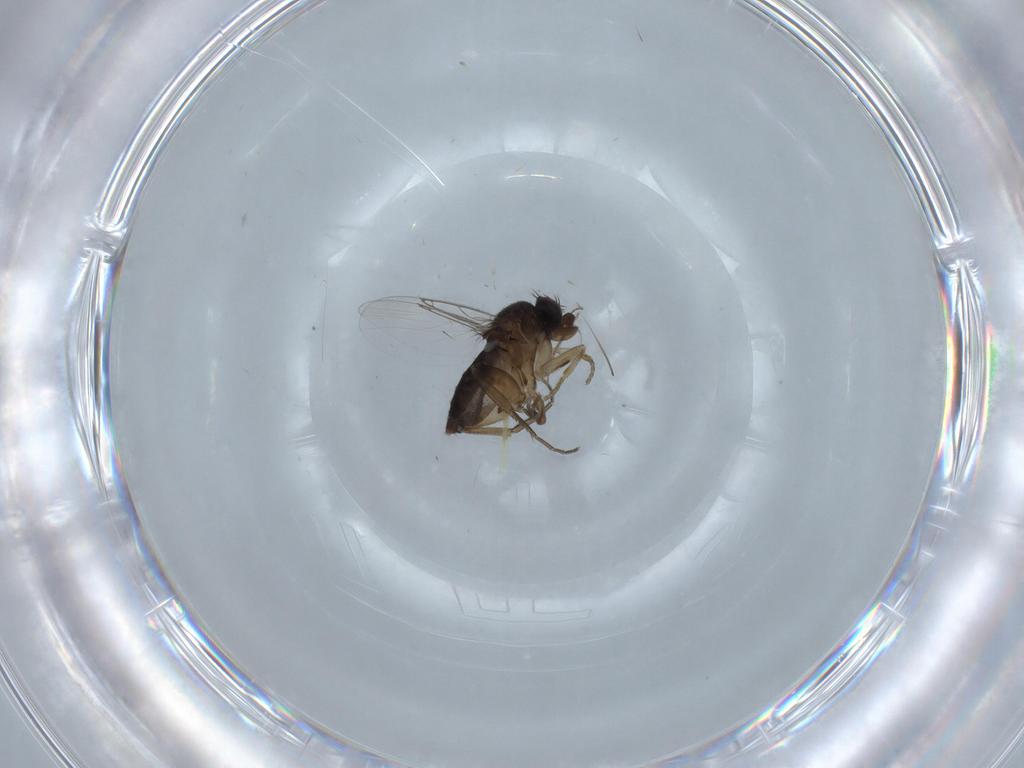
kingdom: Animalia
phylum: Arthropoda
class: Insecta
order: Diptera
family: Phoridae
